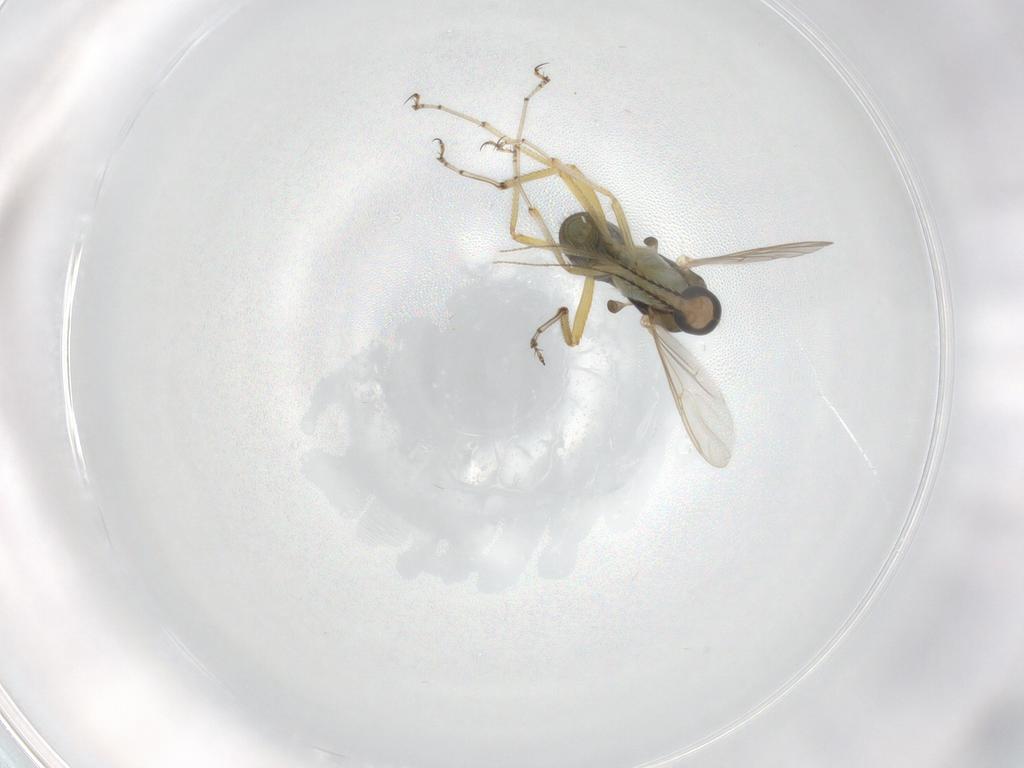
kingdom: Animalia
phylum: Arthropoda
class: Insecta
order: Diptera
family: Ceratopogonidae
